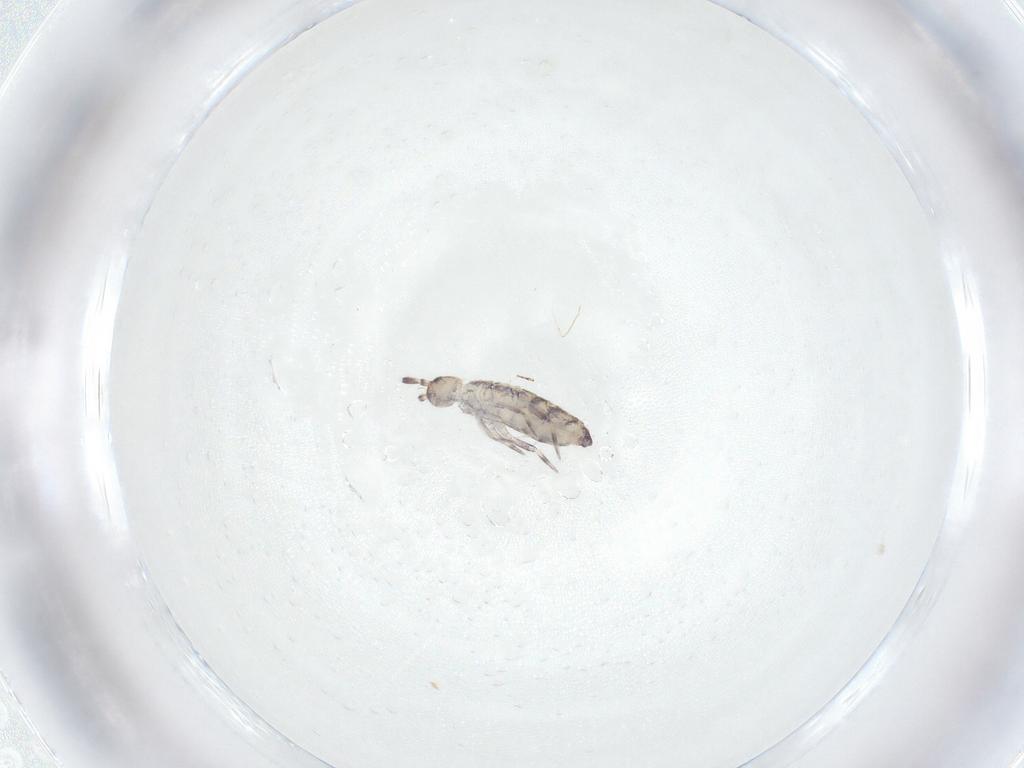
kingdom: Animalia
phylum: Arthropoda
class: Collembola
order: Entomobryomorpha
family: Entomobryidae
